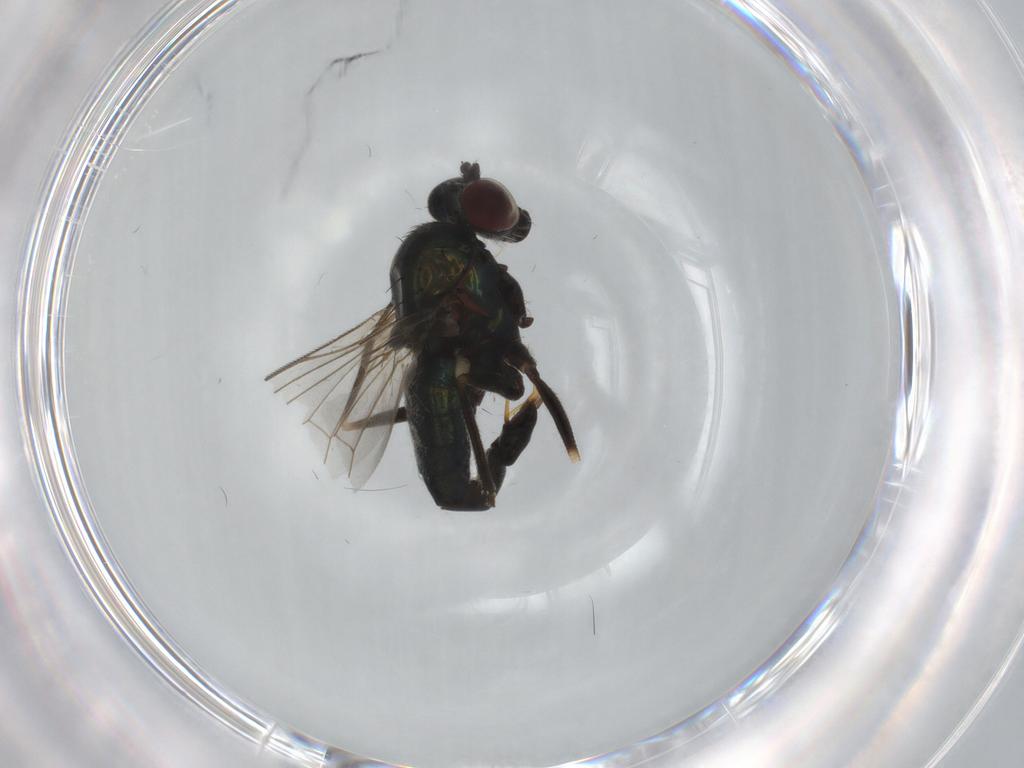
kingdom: Animalia
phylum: Arthropoda
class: Insecta
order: Diptera
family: Dolichopodidae
